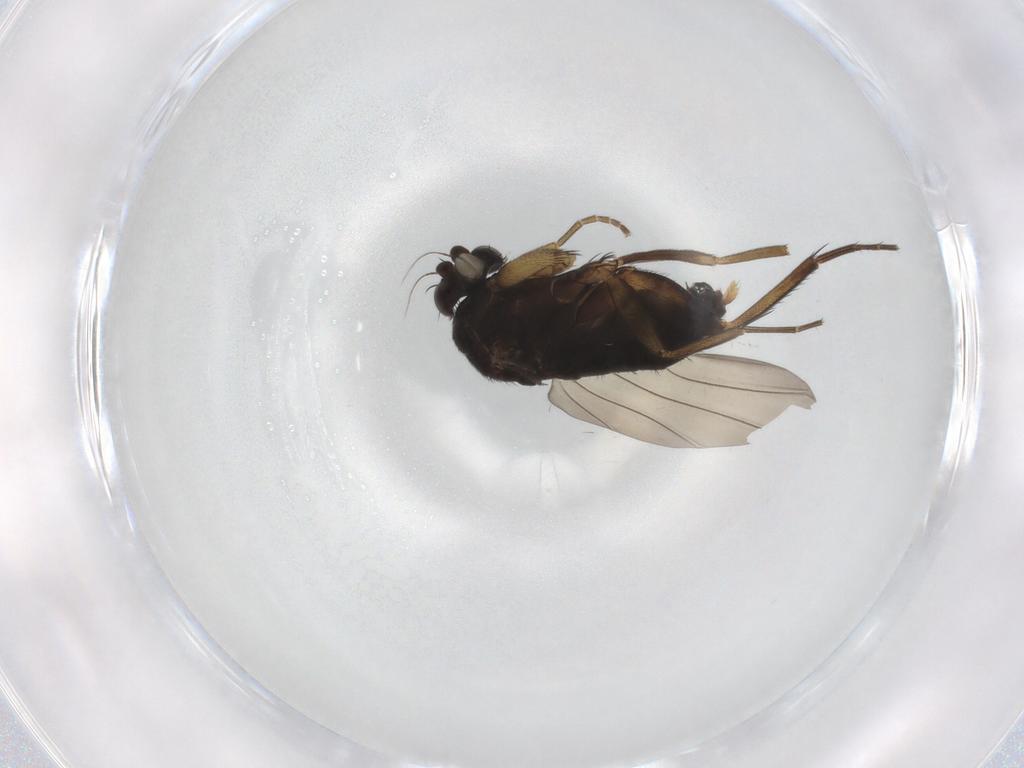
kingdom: Animalia
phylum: Arthropoda
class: Insecta
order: Diptera
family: Phoridae
